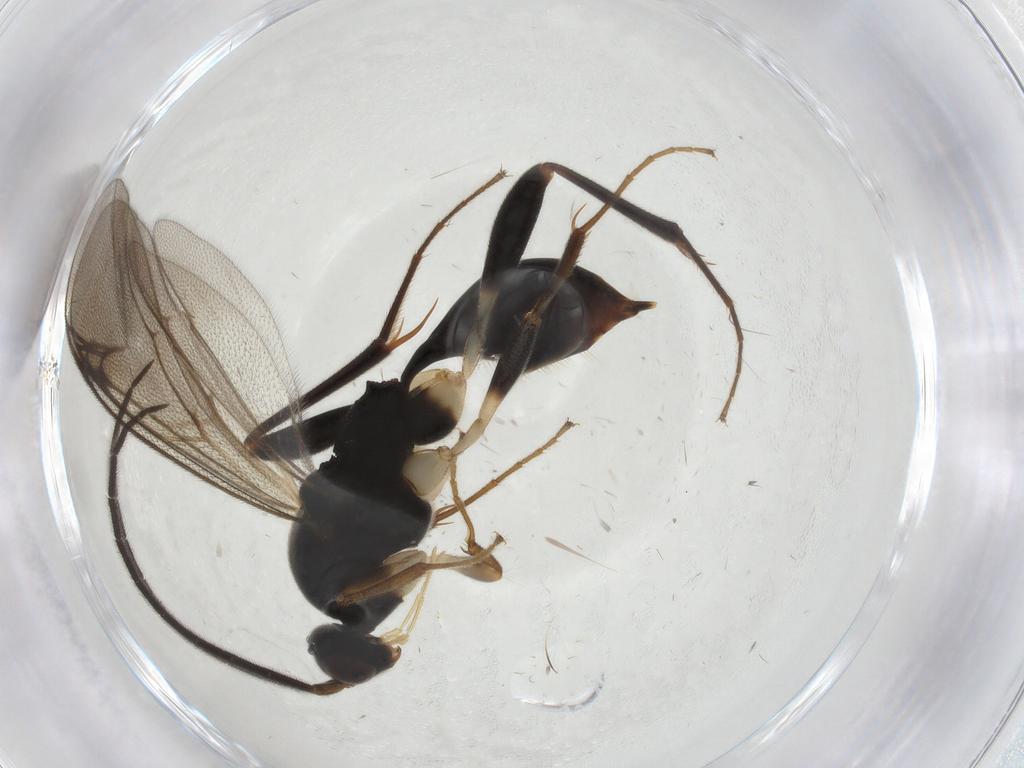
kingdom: Animalia
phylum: Arthropoda
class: Insecta
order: Hymenoptera
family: Proctotrupidae
